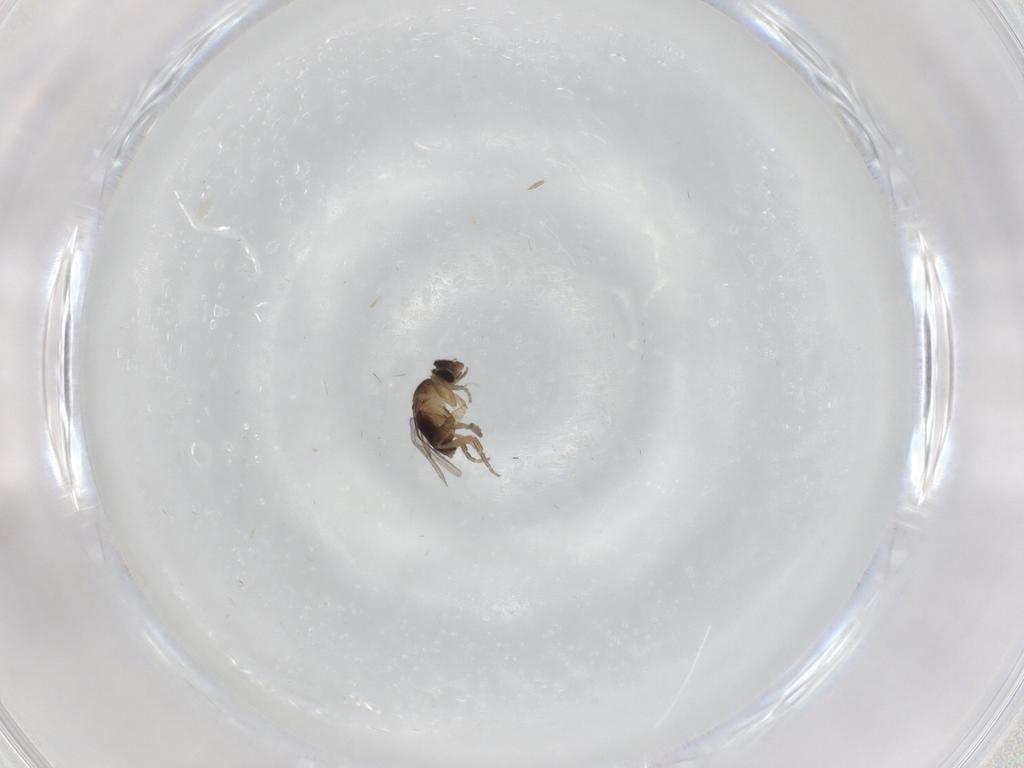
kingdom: Animalia
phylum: Arthropoda
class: Insecta
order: Diptera
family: Phoridae
